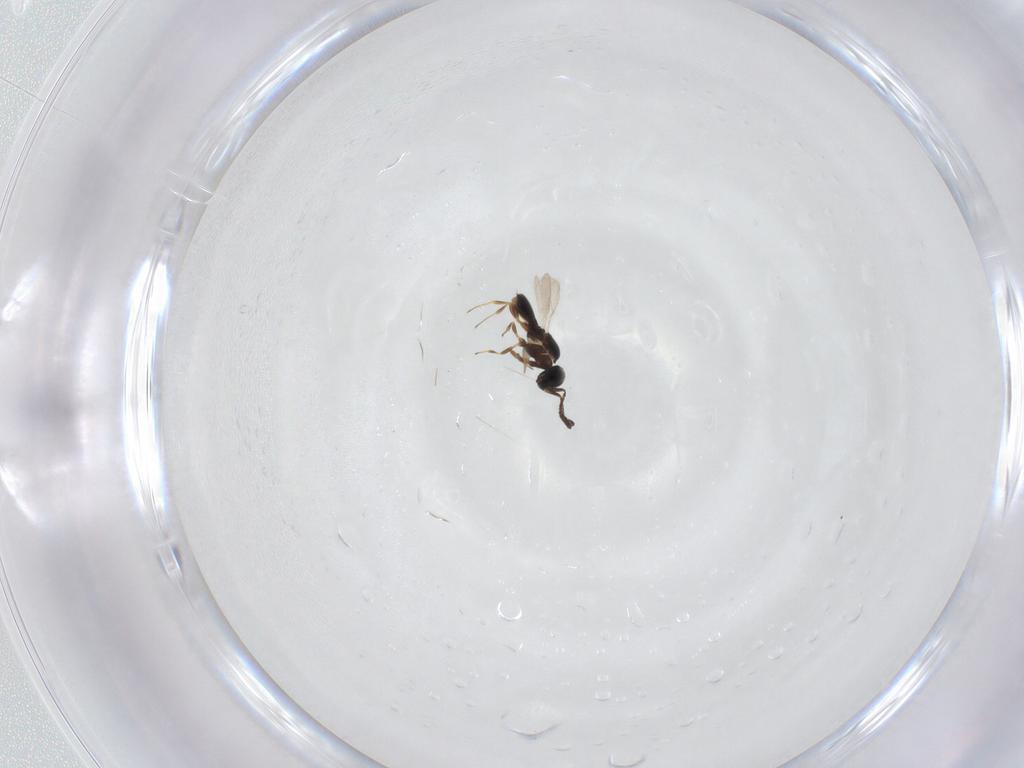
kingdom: Animalia
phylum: Arthropoda
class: Insecta
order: Hymenoptera
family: Scelionidae
